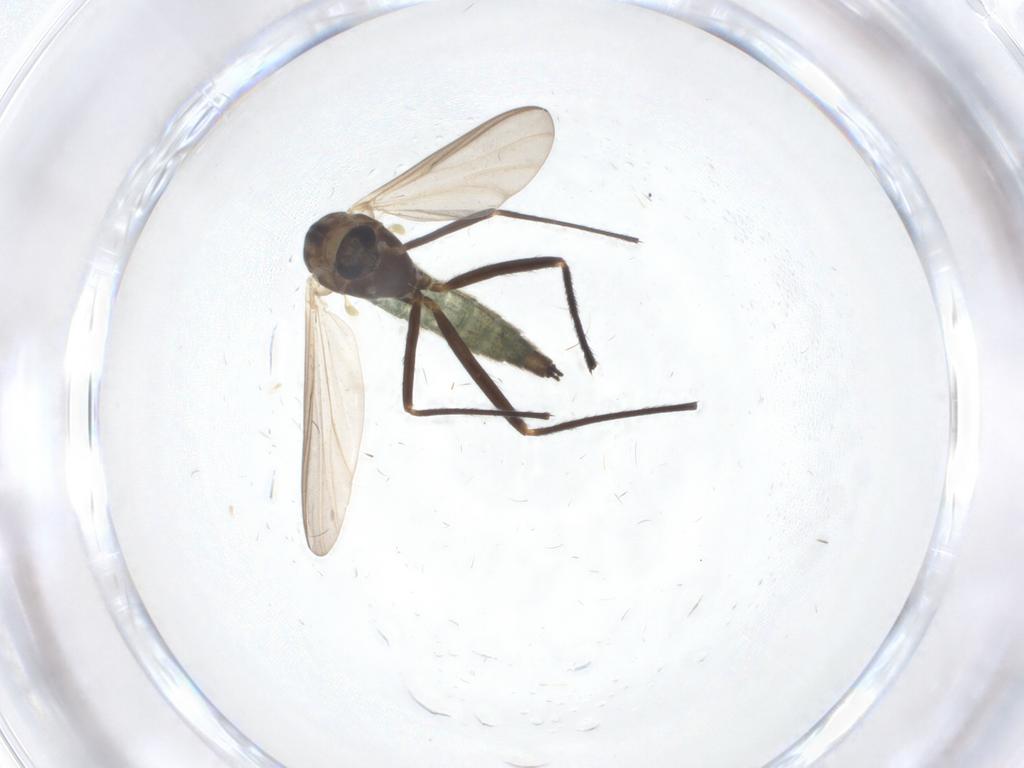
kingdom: Animalia
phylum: Arthropoda
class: Insecta
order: Diptera
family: Chironomidae
